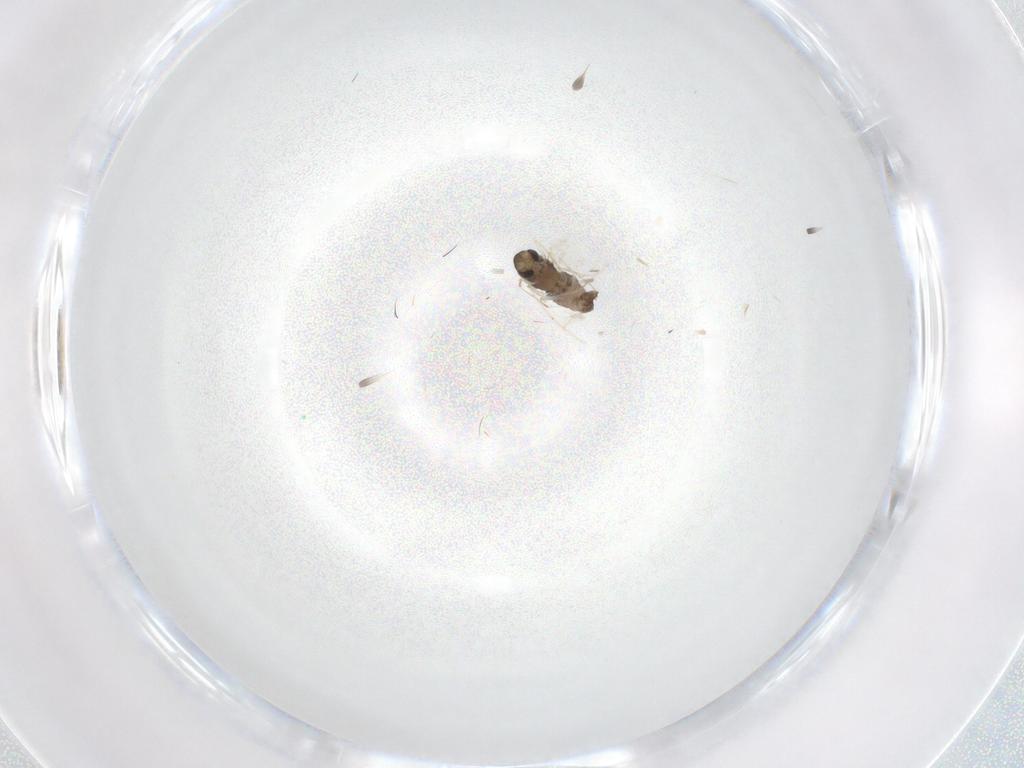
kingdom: Animalia
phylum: Arthropoda
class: Insecta
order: Diptera
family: Chironomidae
